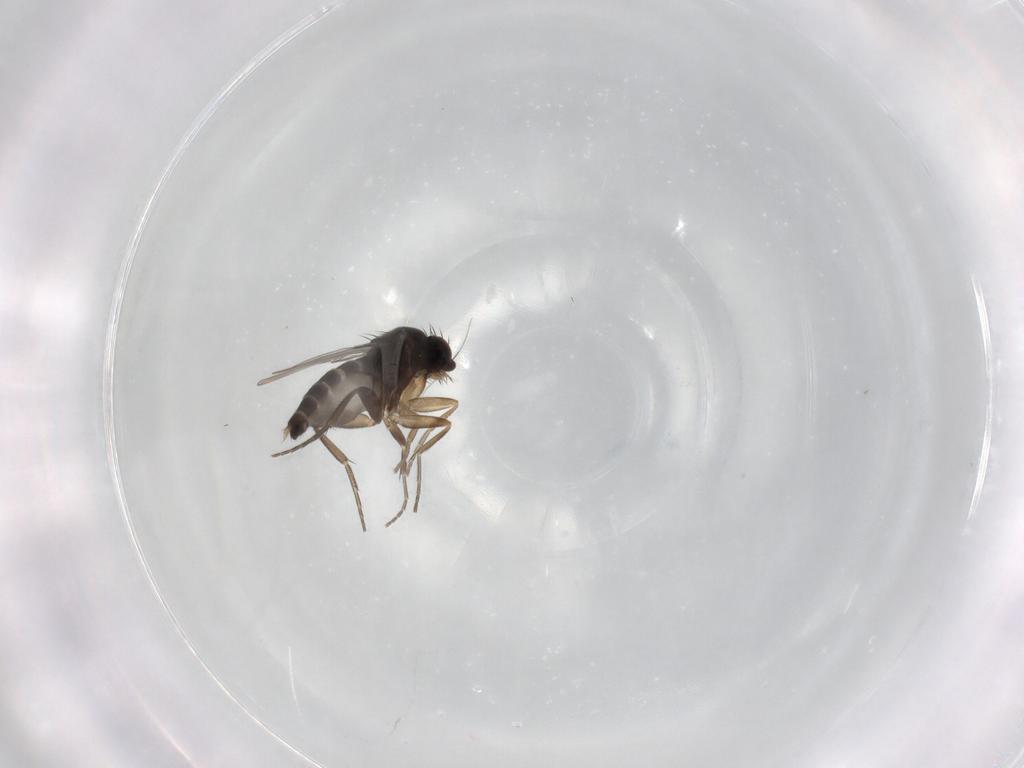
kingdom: Animalia
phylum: Arthropoda
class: Insecta
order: Diptera
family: Phoridae
